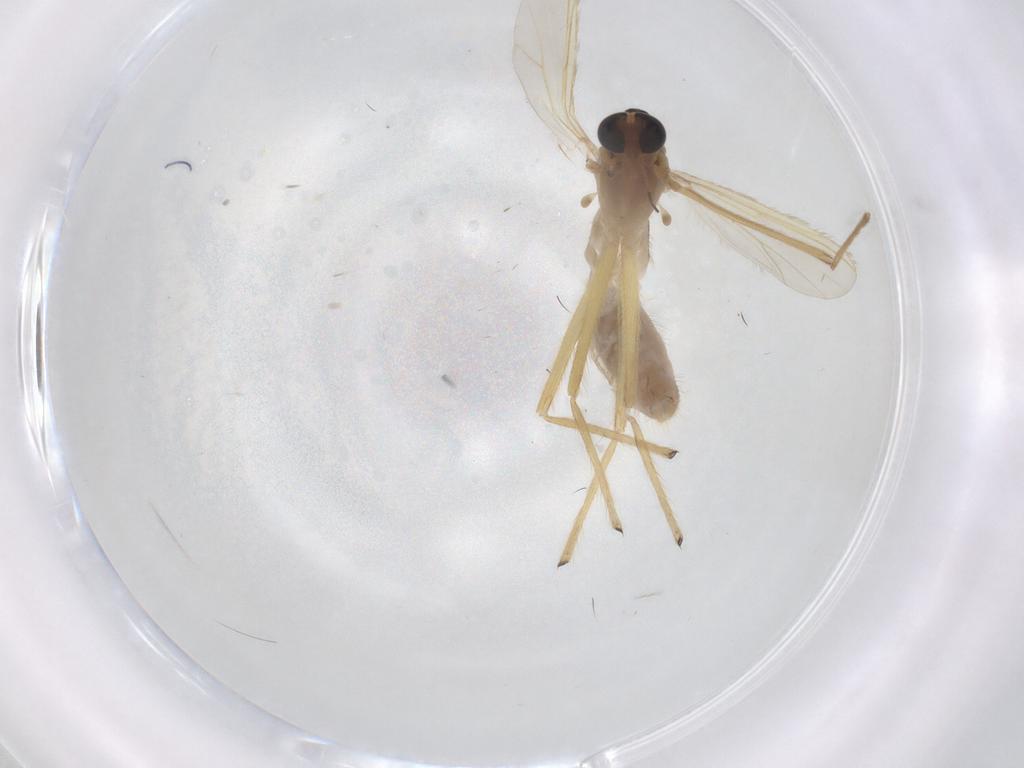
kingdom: Animalia
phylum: Arthropoda
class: Insecta
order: Diptera
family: Chironomidae
